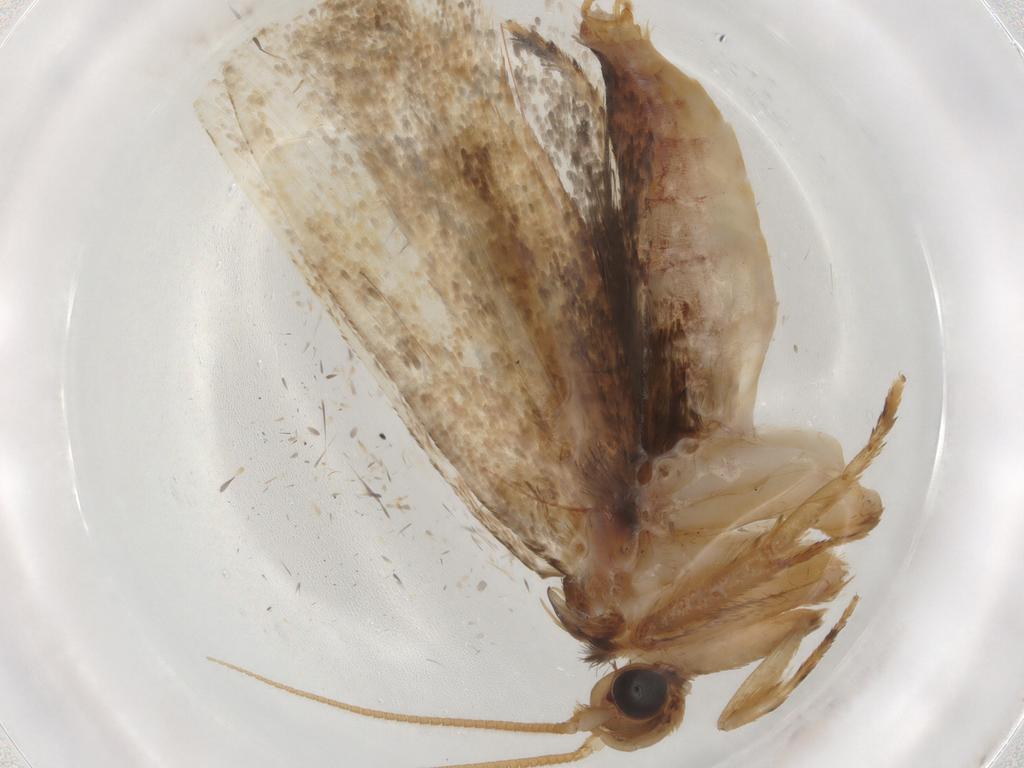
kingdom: Animalia
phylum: Arthropoda
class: Insecta
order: Lepidoptera
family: Tineidae
